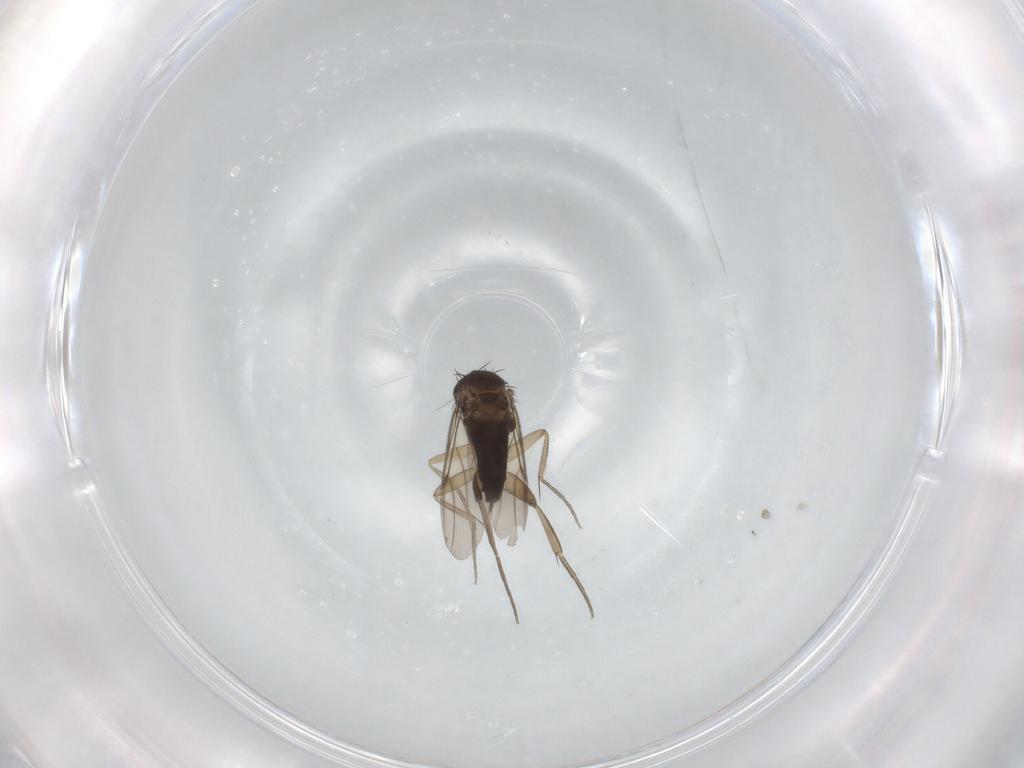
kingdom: Animalia
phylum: Arthropoda
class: Insecta
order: Diptera
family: Phoridae
